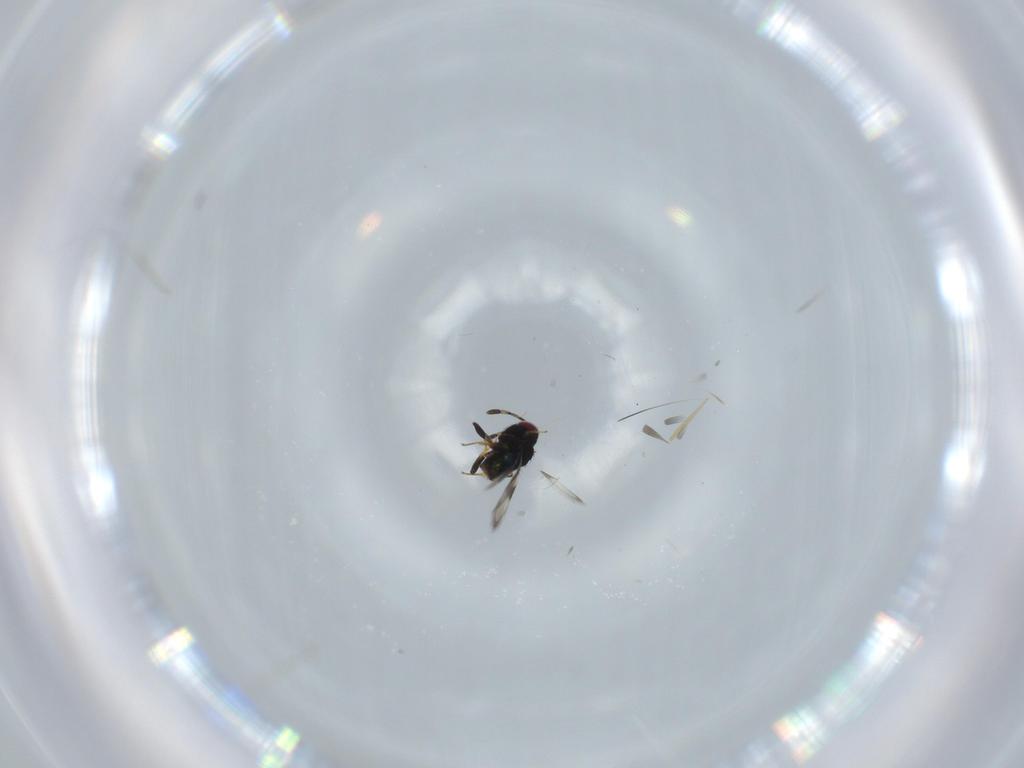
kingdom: Animalia
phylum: Arthropoda
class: Insecta
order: Hymenoptera
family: Azotidae
